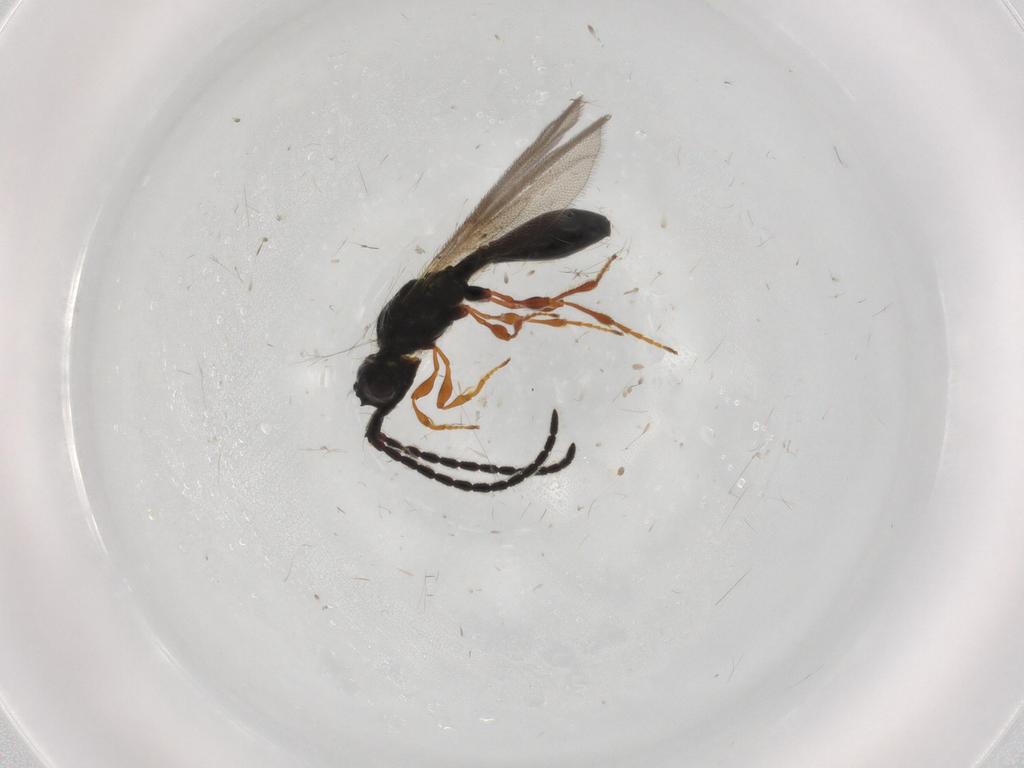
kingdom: Animalia
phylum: Arthropoda
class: Insecta
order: Hymenoptera
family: Diapriidae
